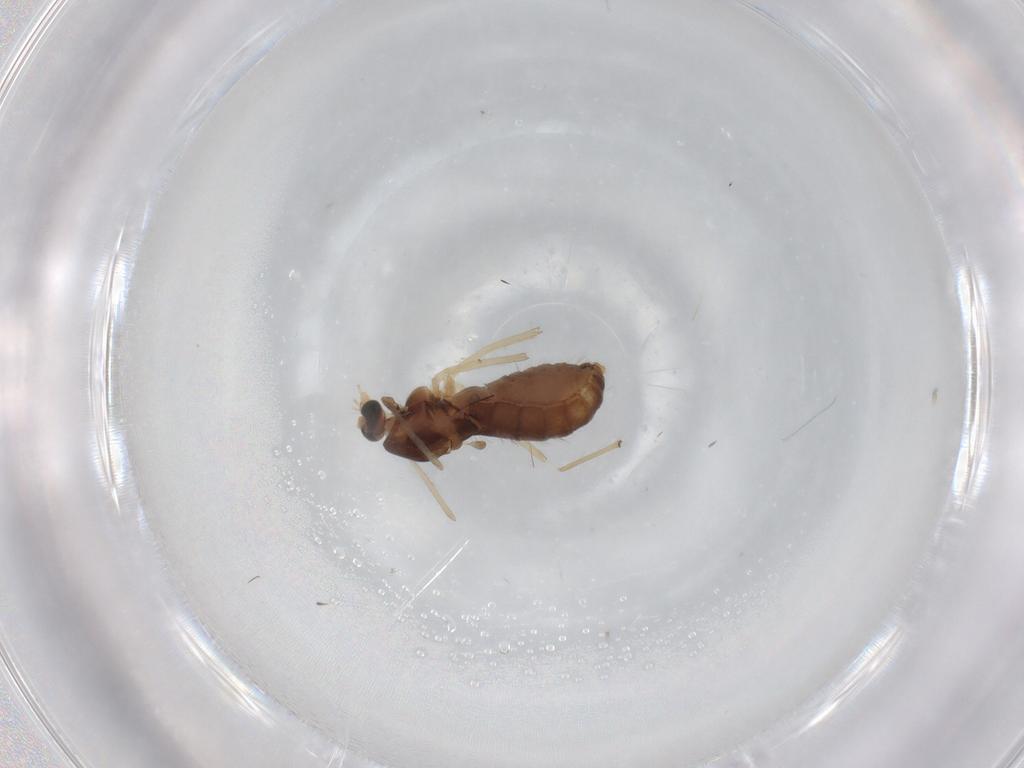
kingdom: Animalia
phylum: Arthropoda
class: Insecta
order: Diptera
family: Chironomidae
